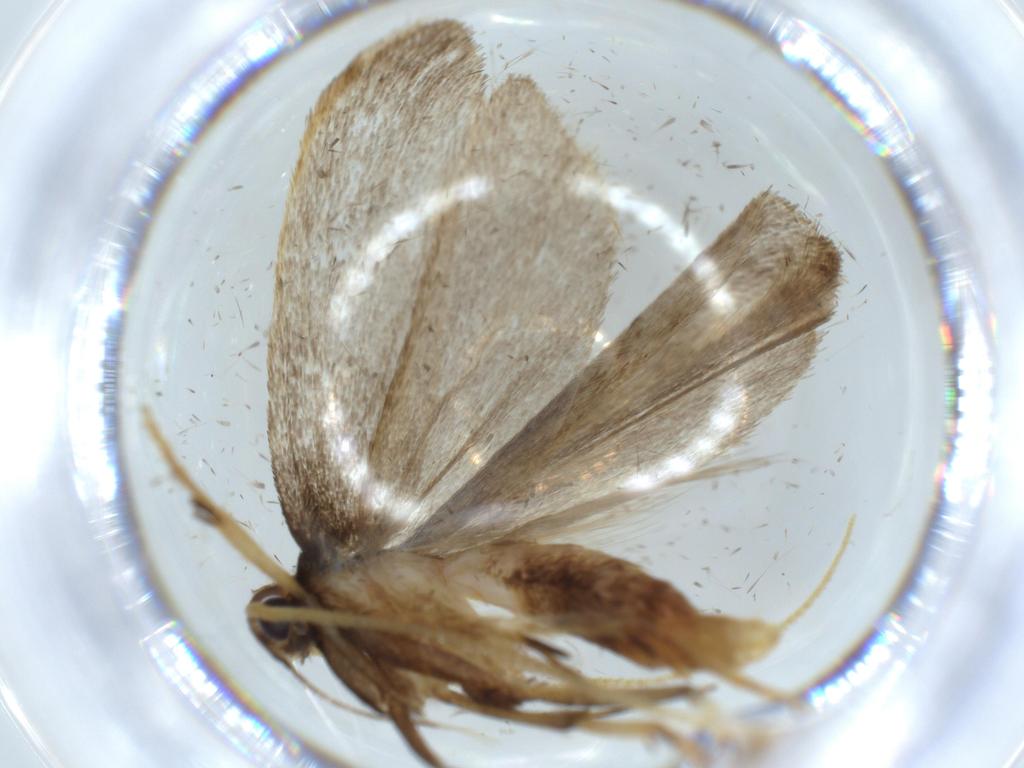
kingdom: Animalia
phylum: Arthropoda
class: Insecta
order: Lepidoptera
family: Lecithoceridae
